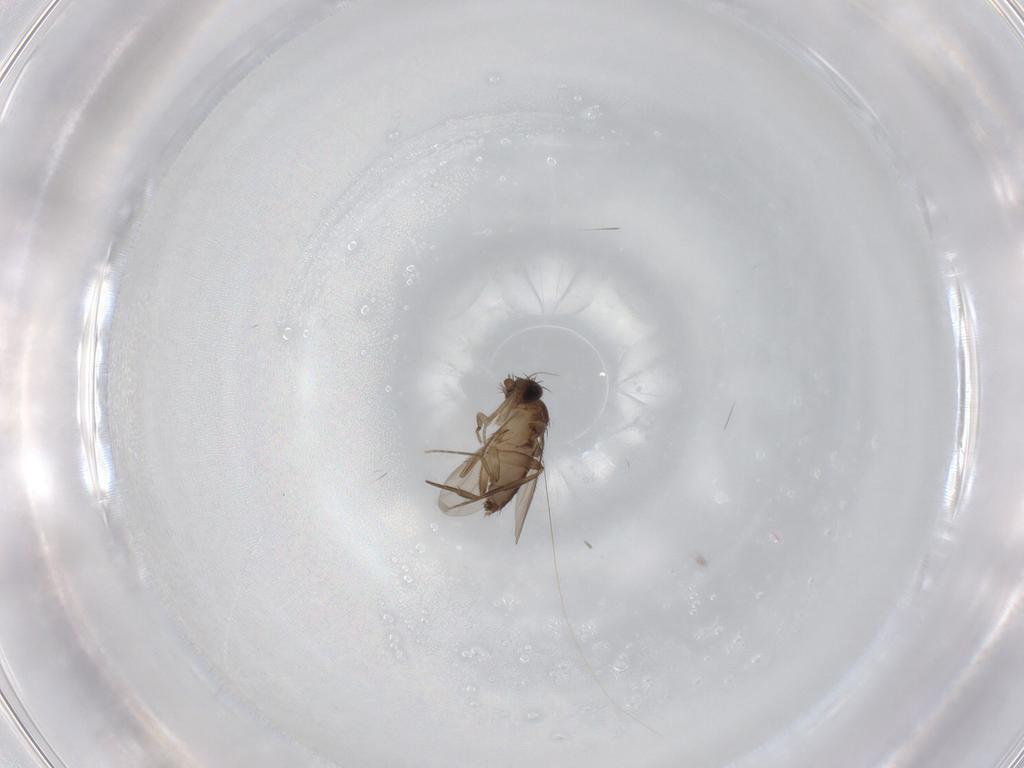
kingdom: Animalia
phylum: Arthropoda
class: Insecta
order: Diptera
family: Phoridae
